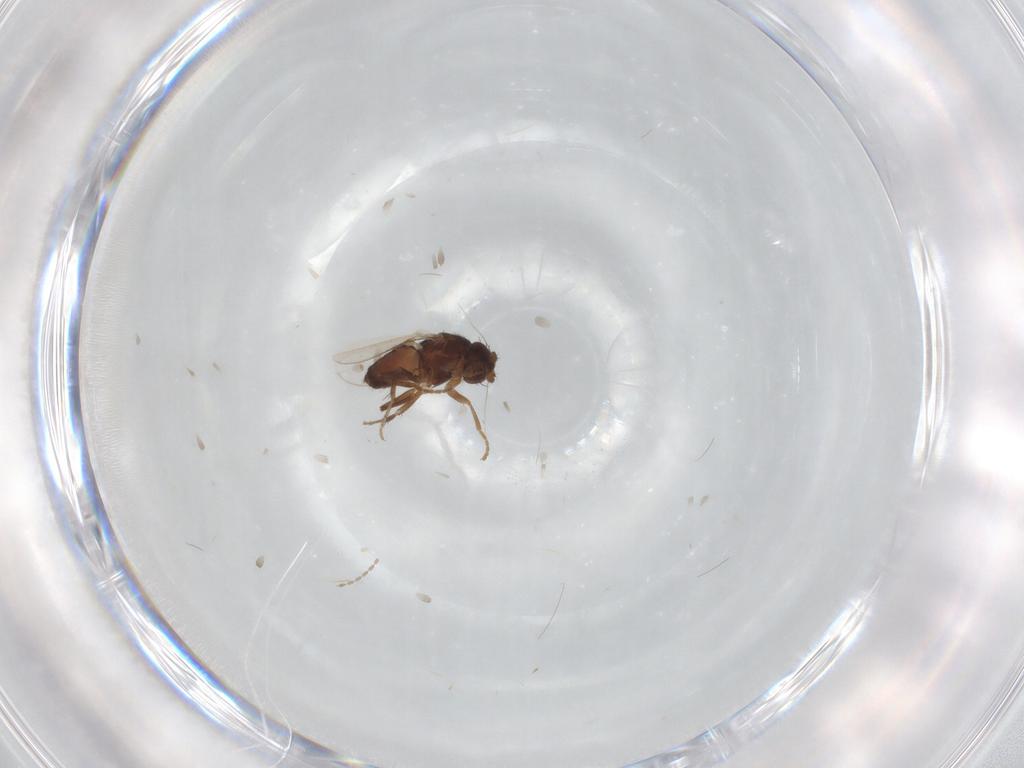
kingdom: Animalia
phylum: Arthropoda
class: Insecta
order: Diptera
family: Sphaeroceridae
